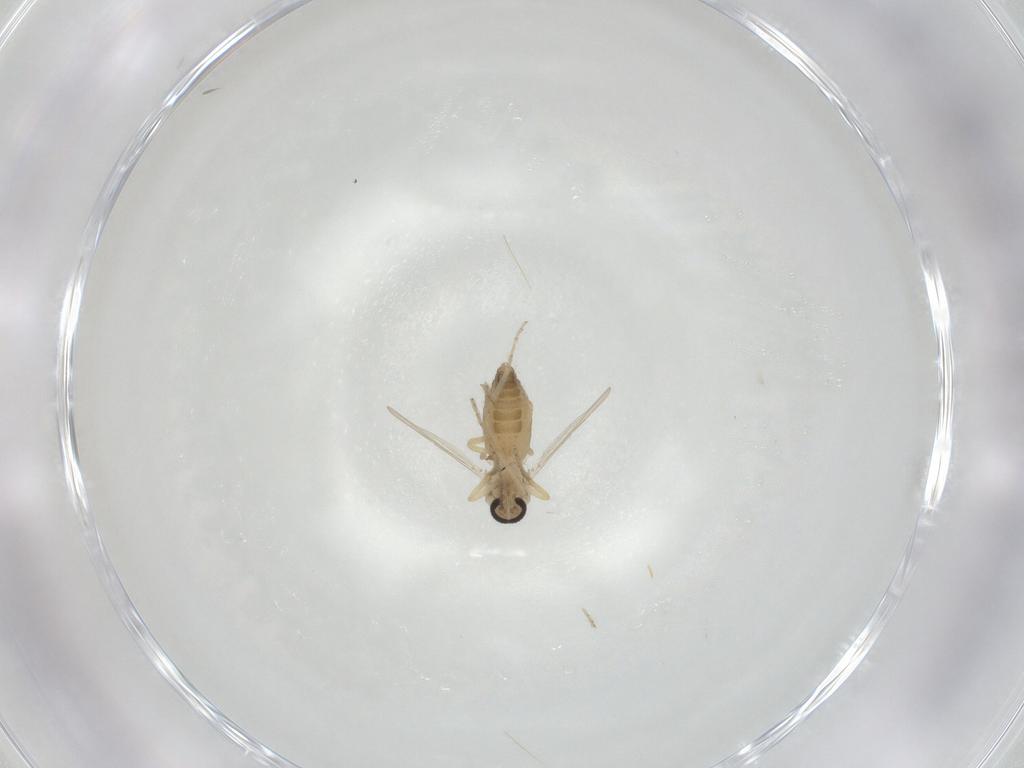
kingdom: Animalia
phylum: Arthropoda
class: Insecta
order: Diptera
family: Ceratopogonidae
